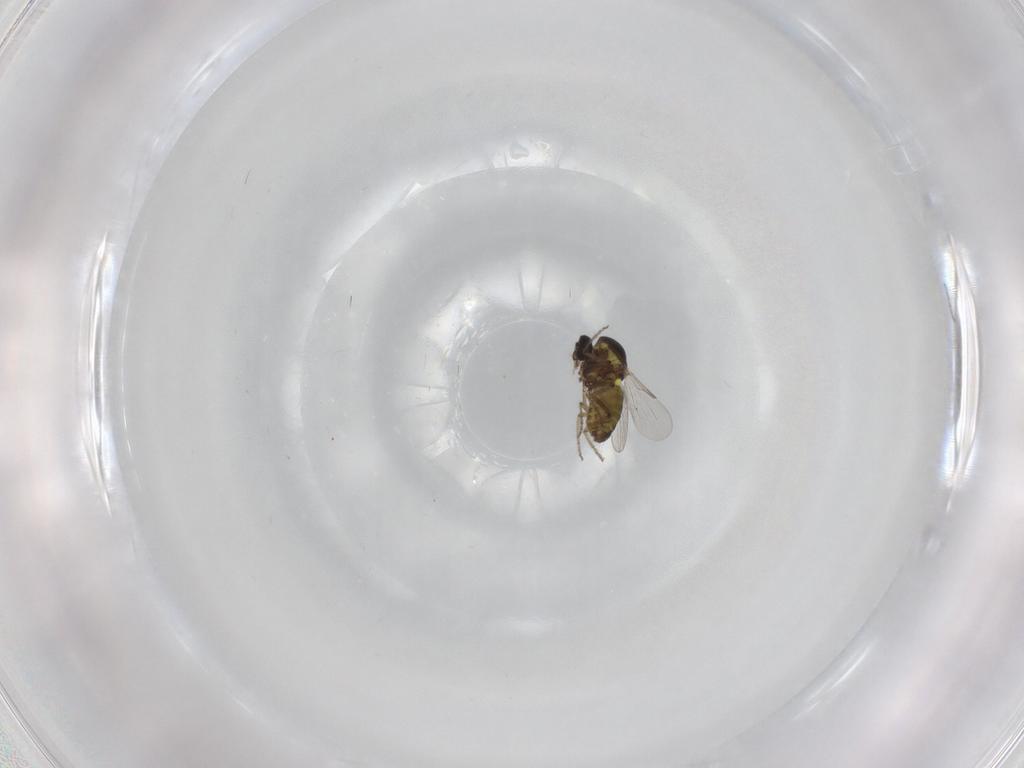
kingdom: Animalia
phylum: Arthropoda
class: Insecta
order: Diptera
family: Ceratopogonidae
